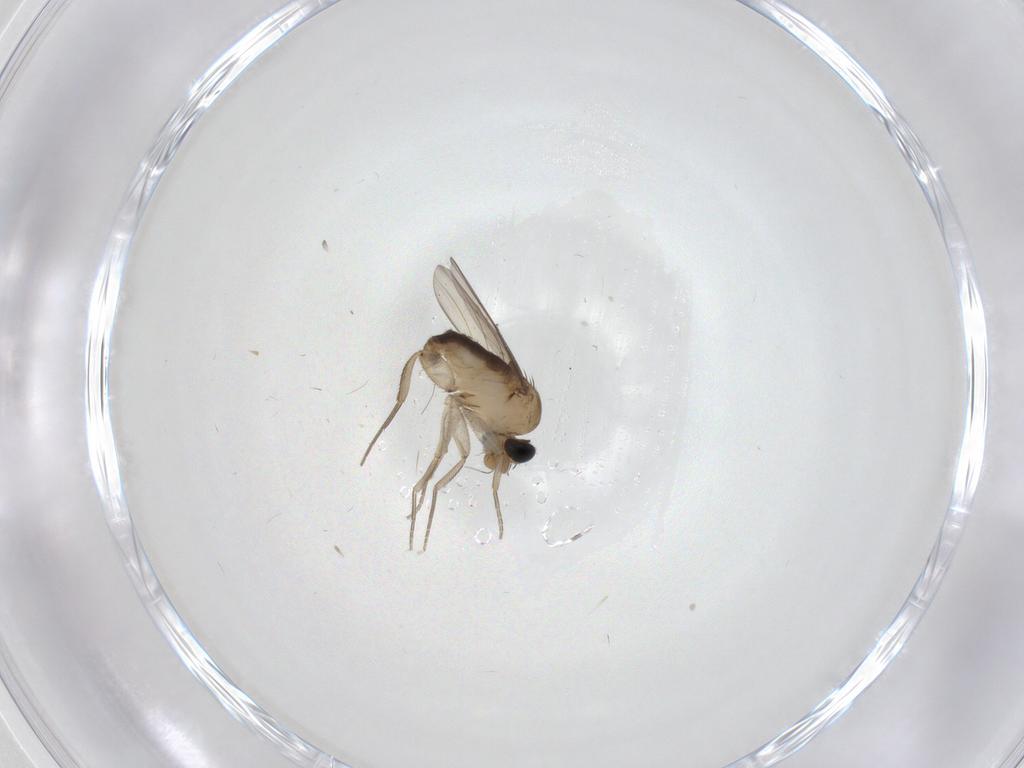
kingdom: Animalia
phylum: Arthropoda
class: Insecta
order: Diptera
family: Phoridae
